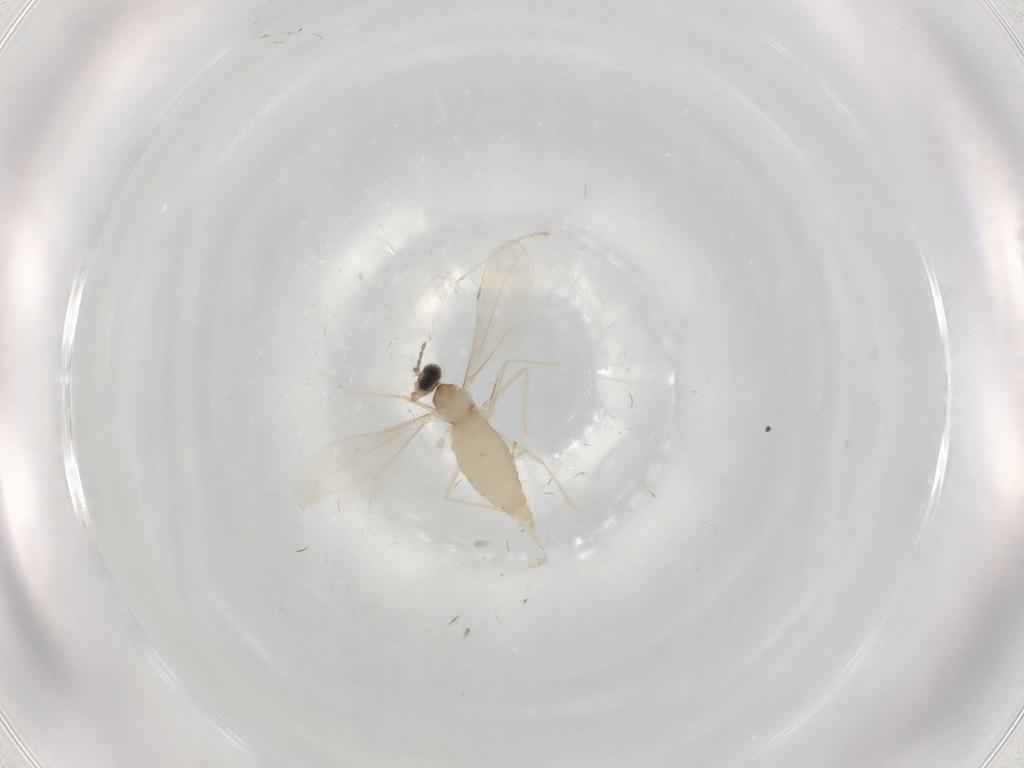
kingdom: Animalia
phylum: Arthropoda
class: Insecta
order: Diptera
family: Cecidomyiidae
